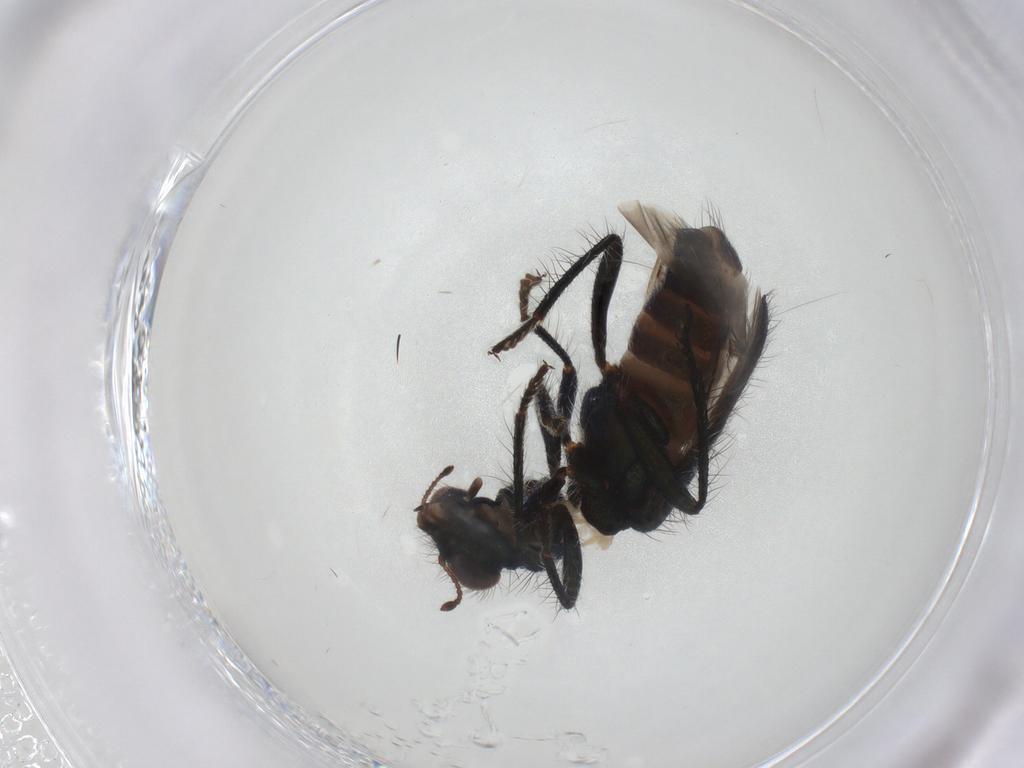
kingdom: Animalia
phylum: Arthropoda
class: Insecta
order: Coleoptera
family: Cleridae
